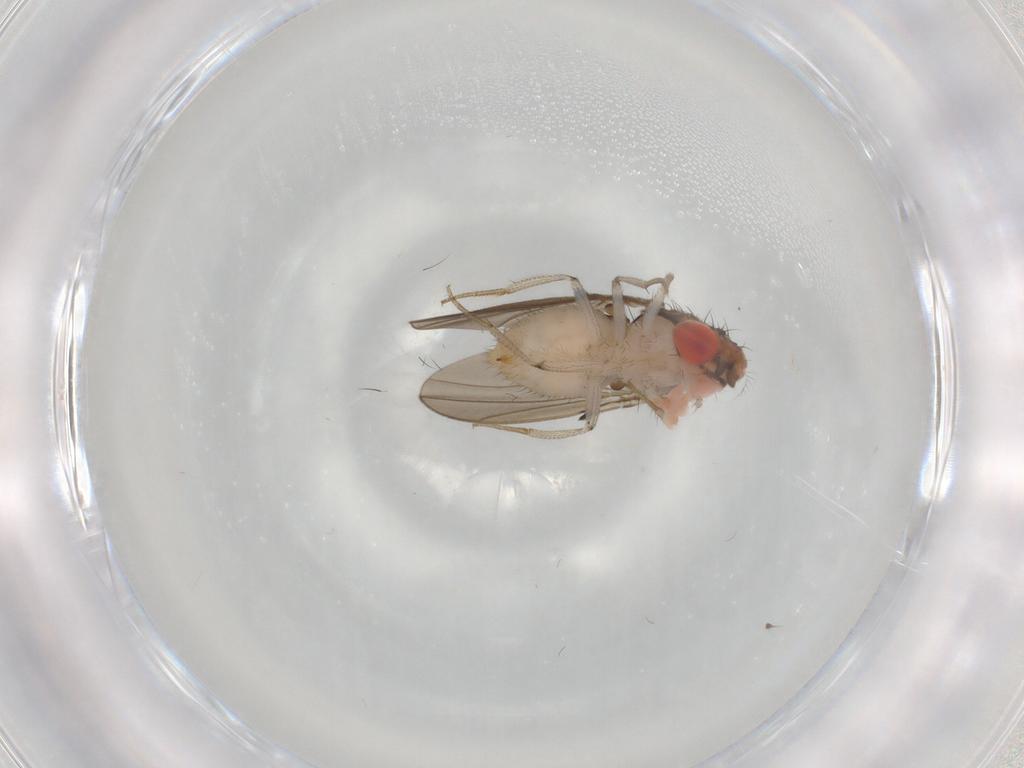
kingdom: Animalia
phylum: Arthropoda
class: Insecta
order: Diptera
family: Drosophilidae
